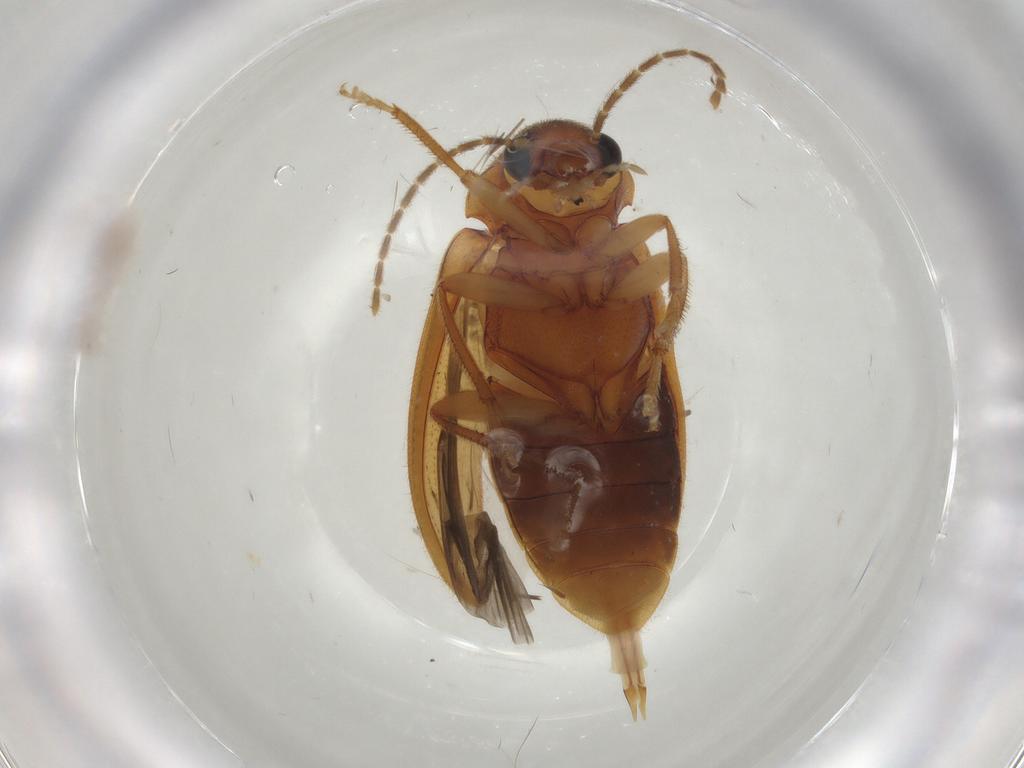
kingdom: Animalia
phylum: Arthropoda
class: Insecta
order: Coleoptera
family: Ptilodactylidae
